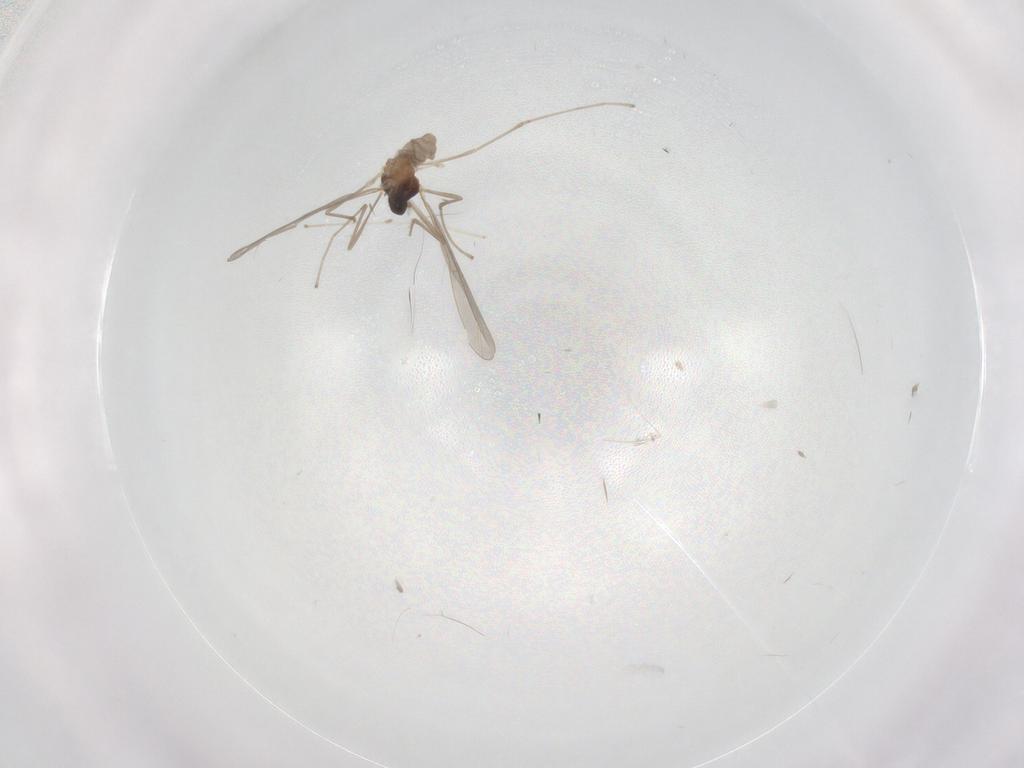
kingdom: Animalia
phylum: Arthropoda
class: Insecta
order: Diptera
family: Cecidomyiidae
